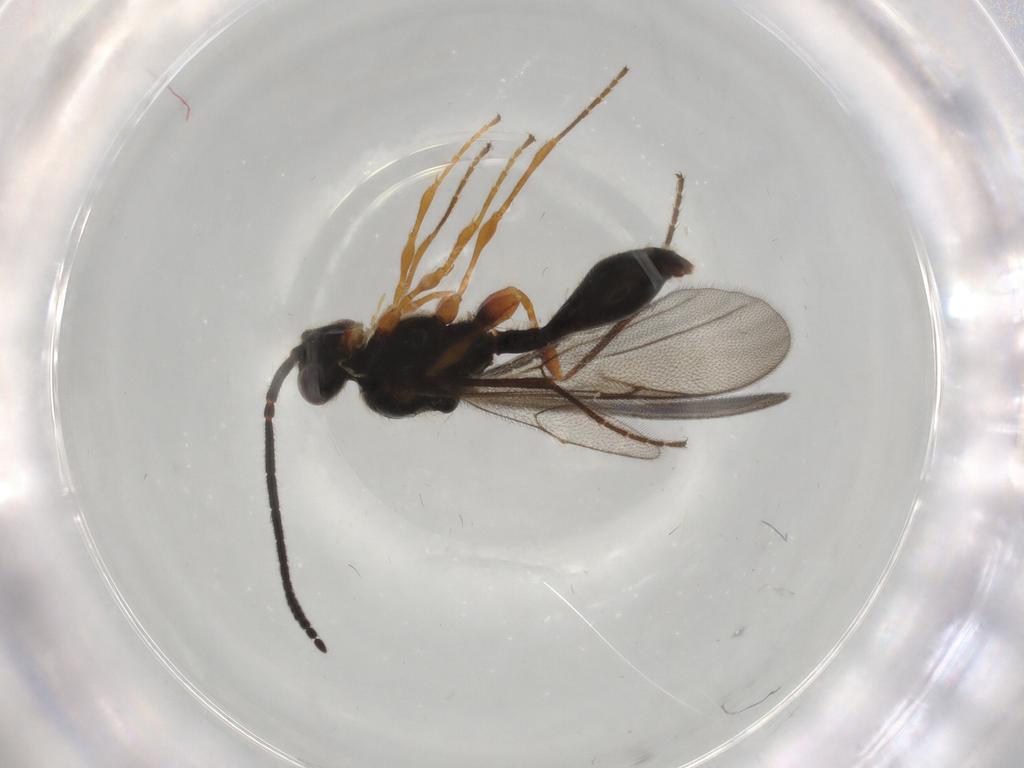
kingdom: Animalia
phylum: Arthropoda
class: Insecta
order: Hymenoptera
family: Diapriidae
